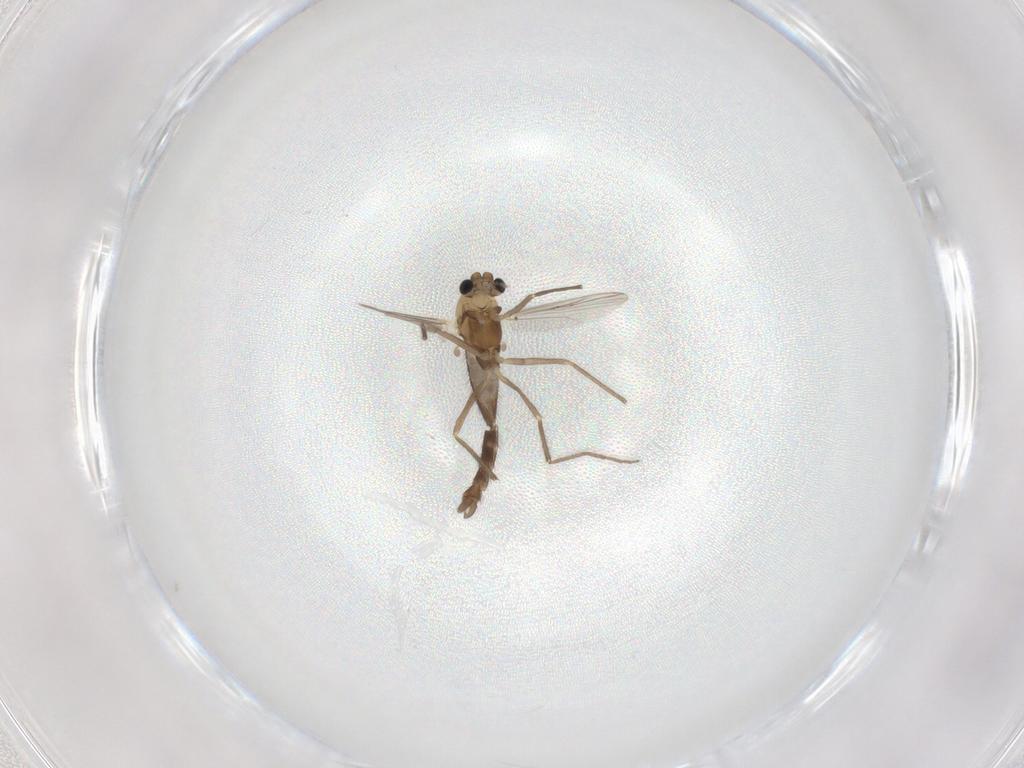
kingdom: Animalia
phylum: Arthropoda
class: Insecta
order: Diptera
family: Chironomidae
